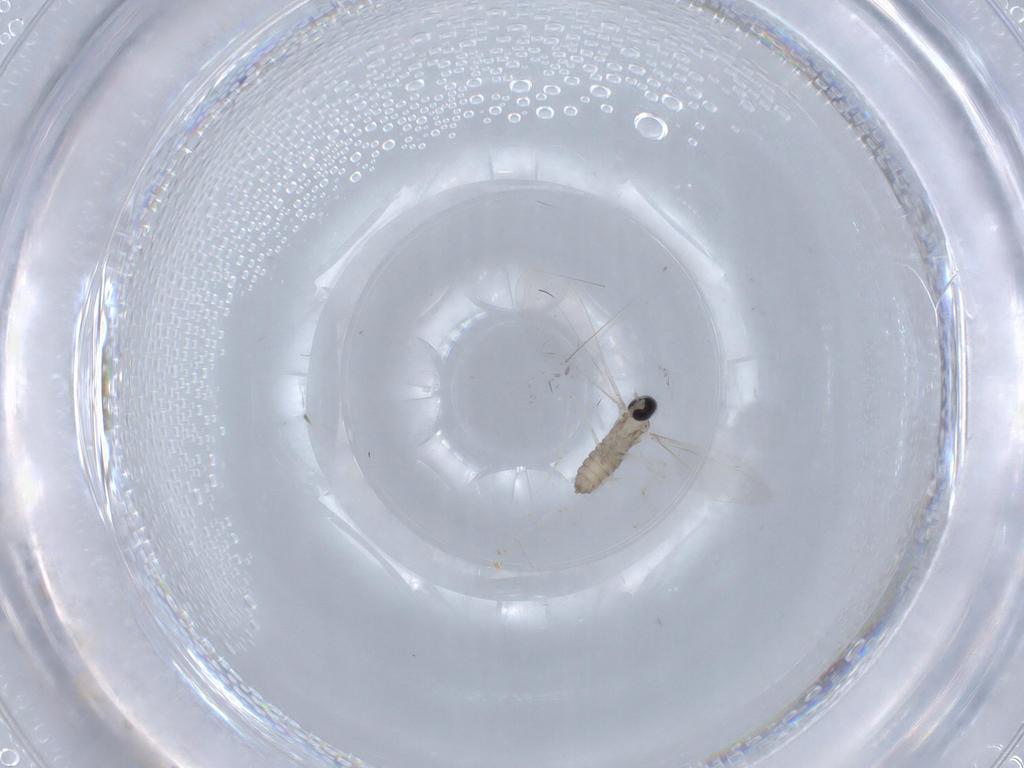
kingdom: Animalia
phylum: Arthropoda
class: Insecta
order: Diptera
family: Cecidomyiidae
